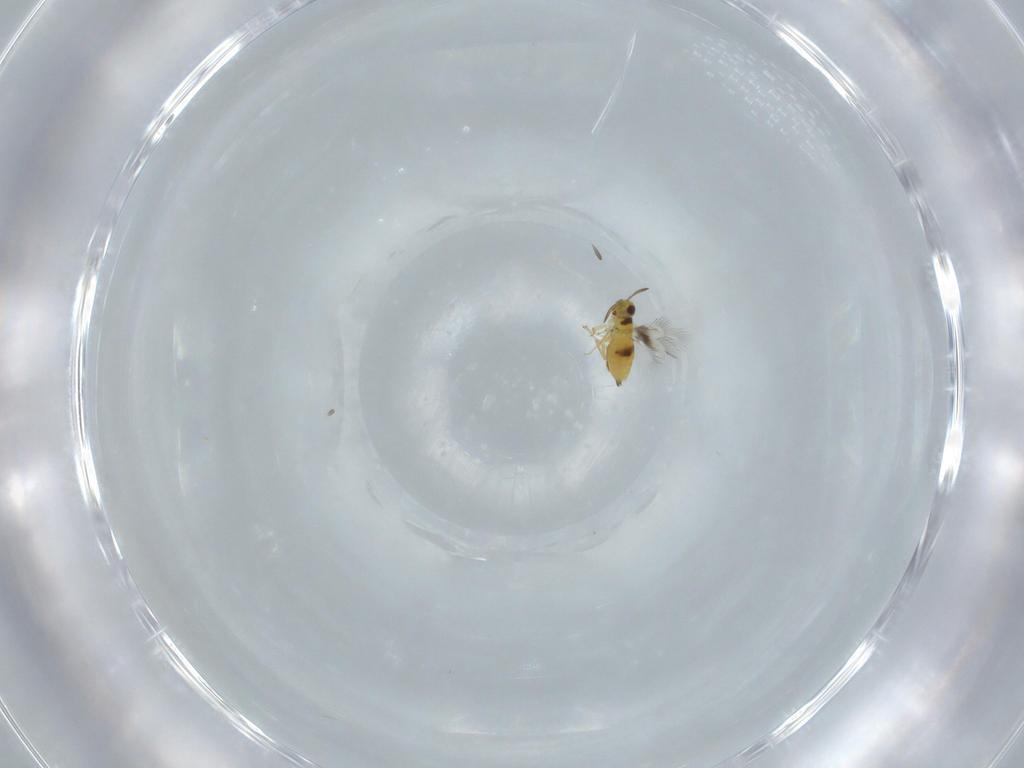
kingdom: Animalia
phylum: Arthropoda
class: Insecta
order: Hymenoptera
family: Signiphoridae
